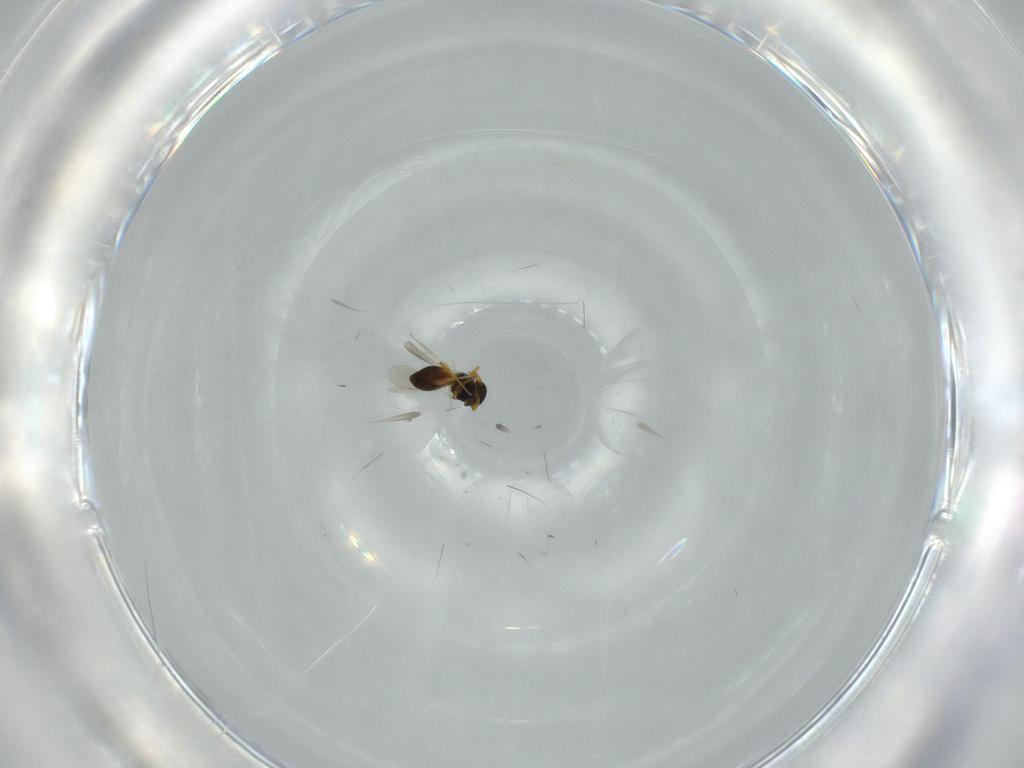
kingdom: Animalia
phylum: Arthropoda
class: Insecta
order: Hymenoptera
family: Platygastridae
